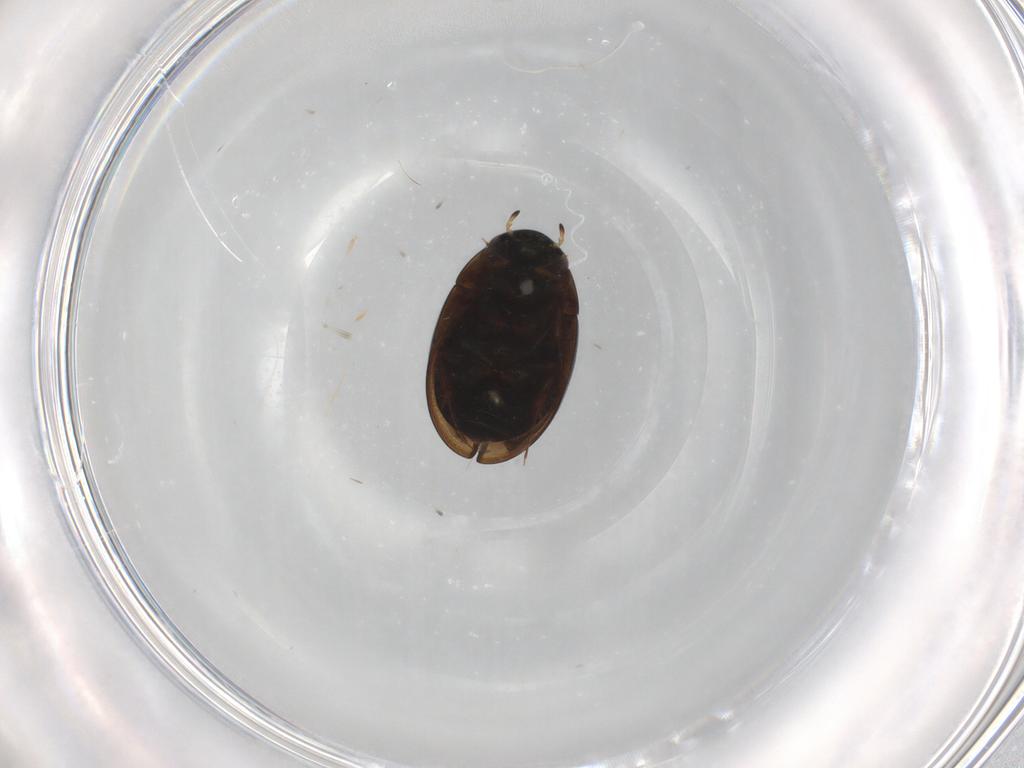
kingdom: Animalia
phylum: Arthropoda
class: Insecta
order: Coleoptera
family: Hydrophilidae
